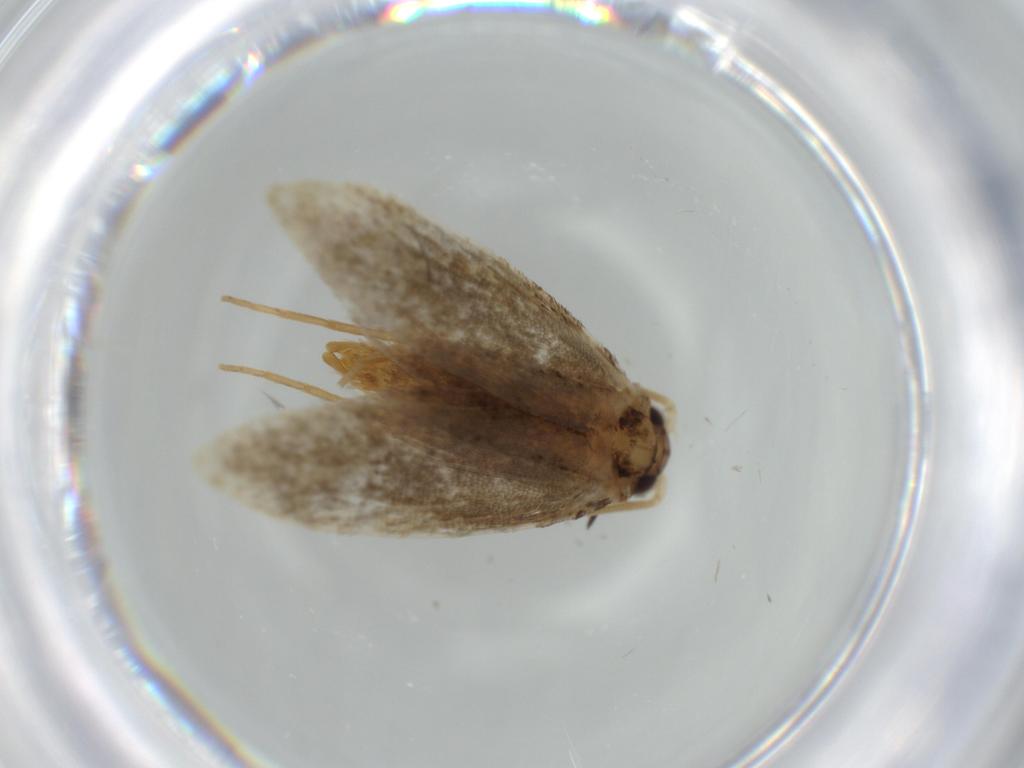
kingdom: Animalia
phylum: Arthropoda
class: Insecta
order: Lepidoptera
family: Tineidae
